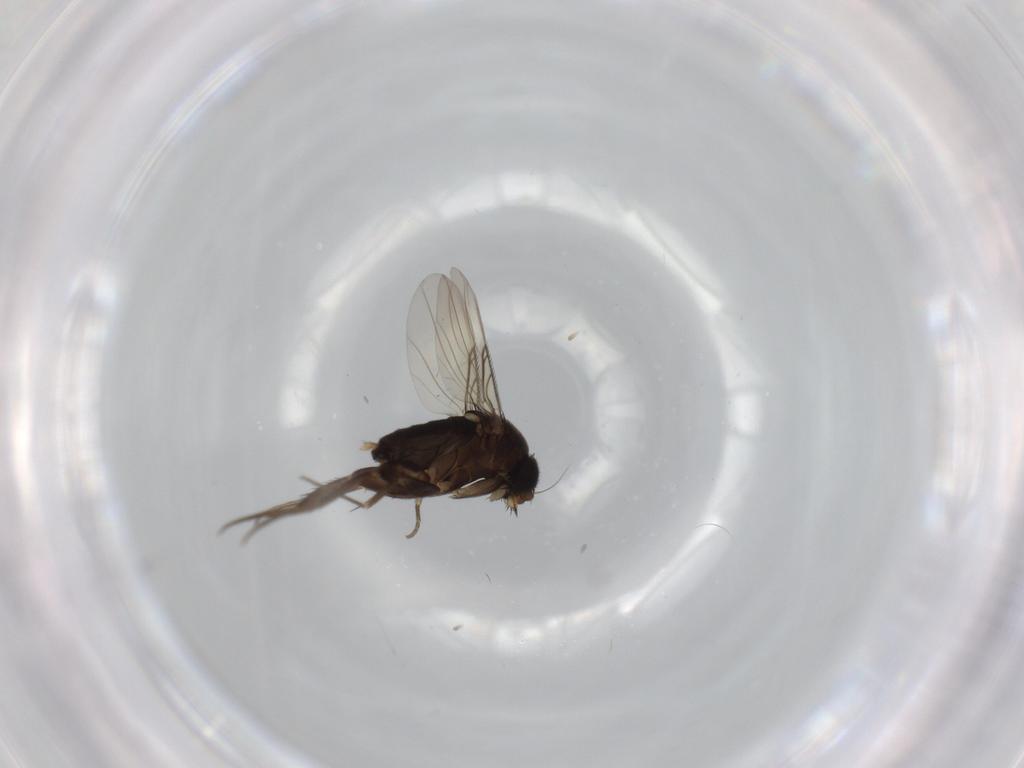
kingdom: Animalia
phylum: Arthropoda
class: Insecta
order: Diptera
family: Phoridae
